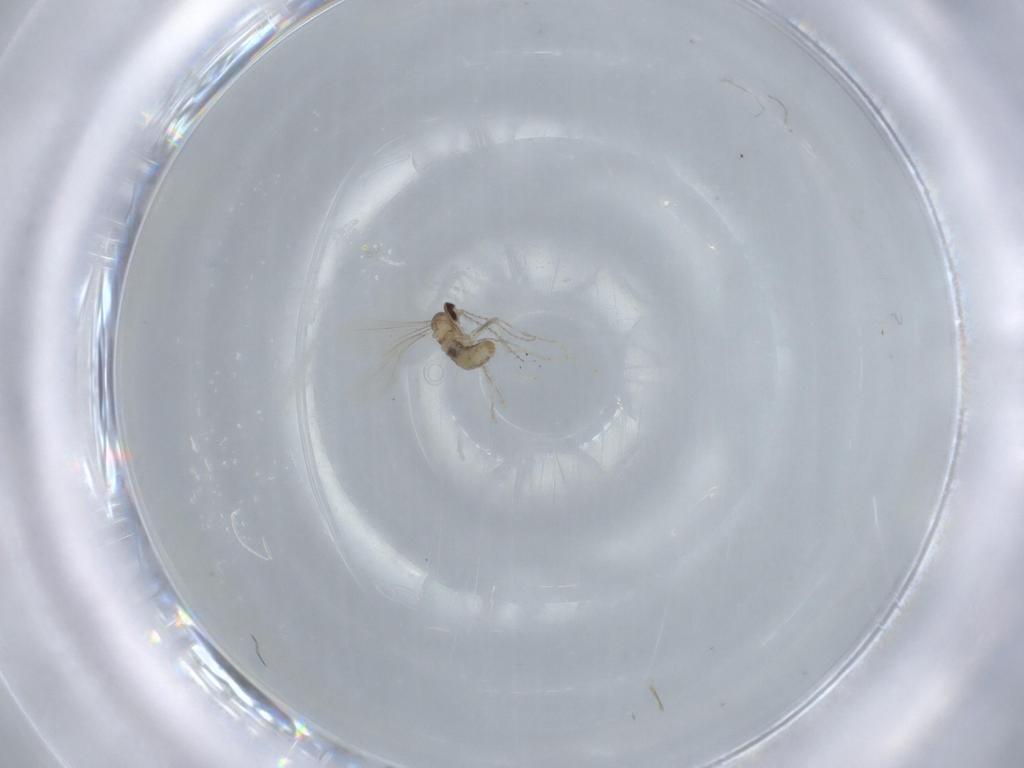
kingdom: Animalia
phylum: Arthropoda
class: Insecta
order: Diptera
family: Cecidomyiidae
